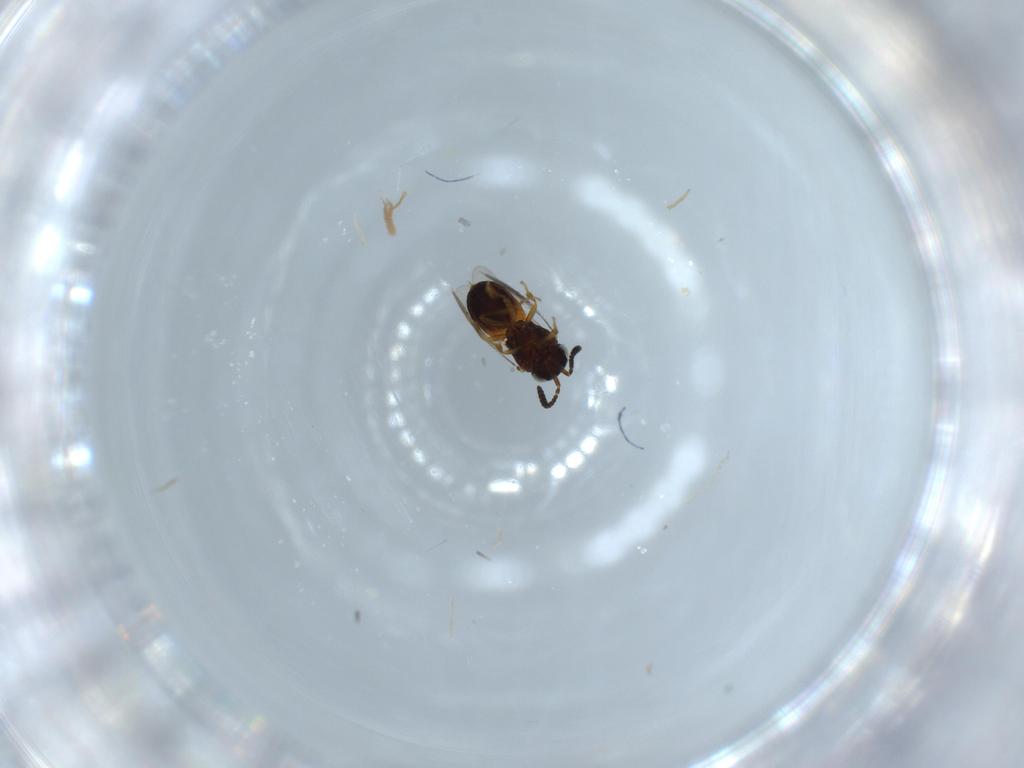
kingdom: Animalia
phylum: Arthropoda
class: Insecta
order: Hymenoptera
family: Scelionidae
